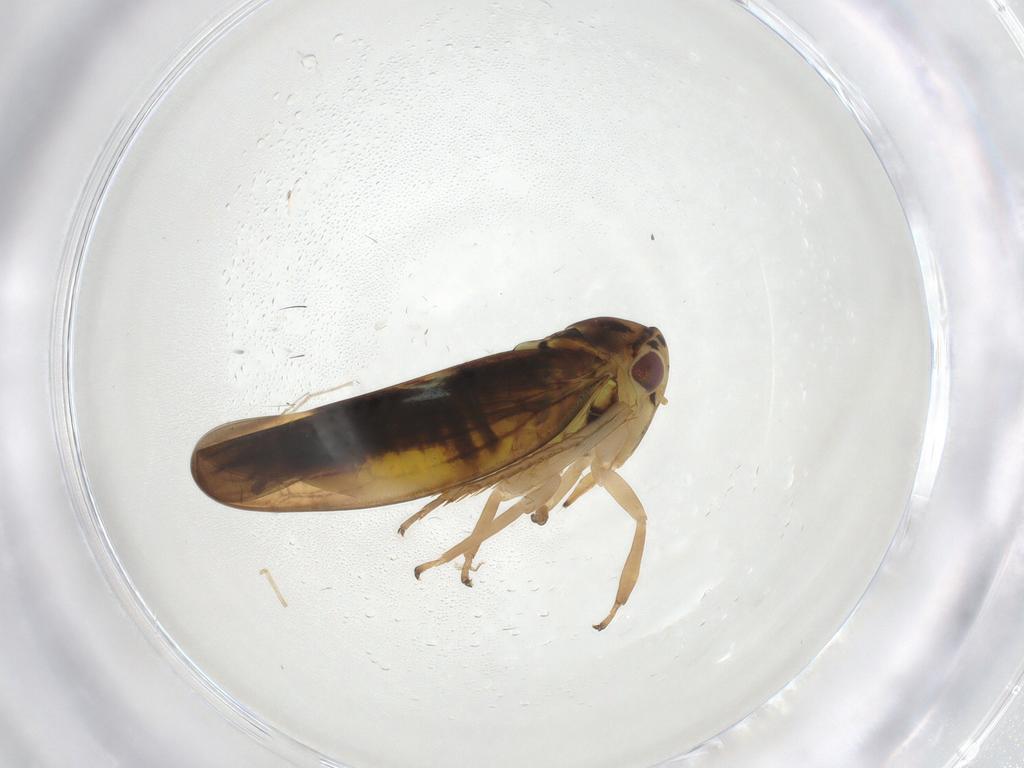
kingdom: Animalia
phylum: Arthropoda
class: Insecta
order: Hemiptera
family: Cicadellidae
